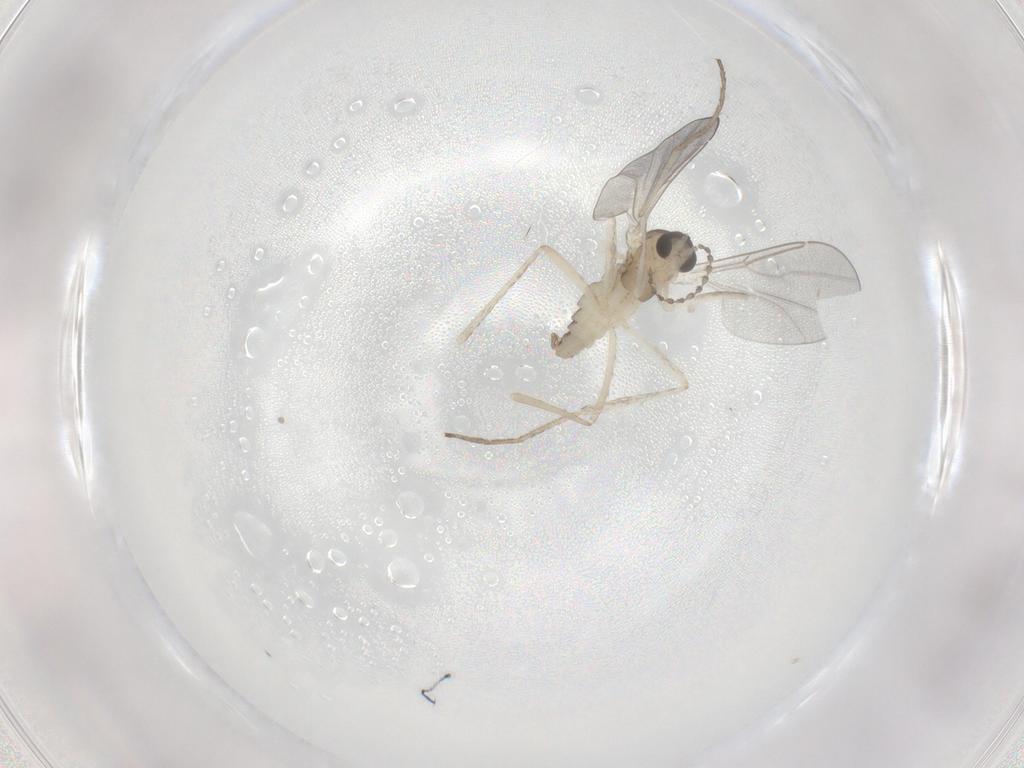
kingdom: Animalia
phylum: Arthropoda
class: Insecta
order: Diptera
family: Cecidomyiidae
